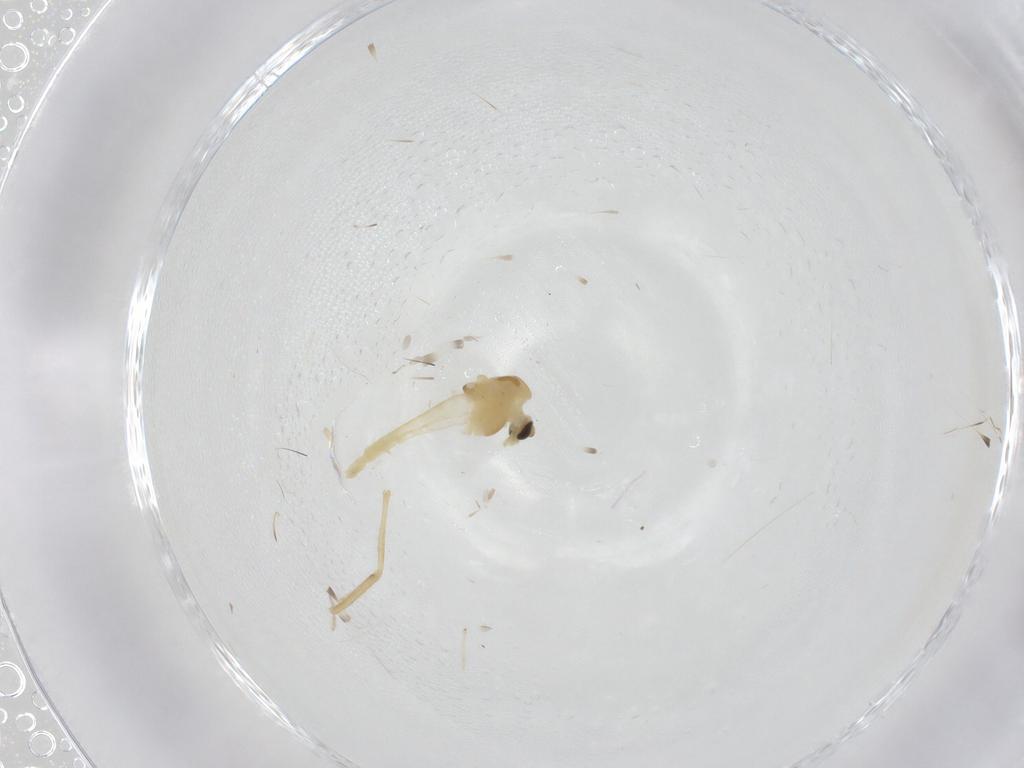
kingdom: Animalia
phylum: Arthropoda
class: Insecta
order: Diptera
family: Chironomidae
